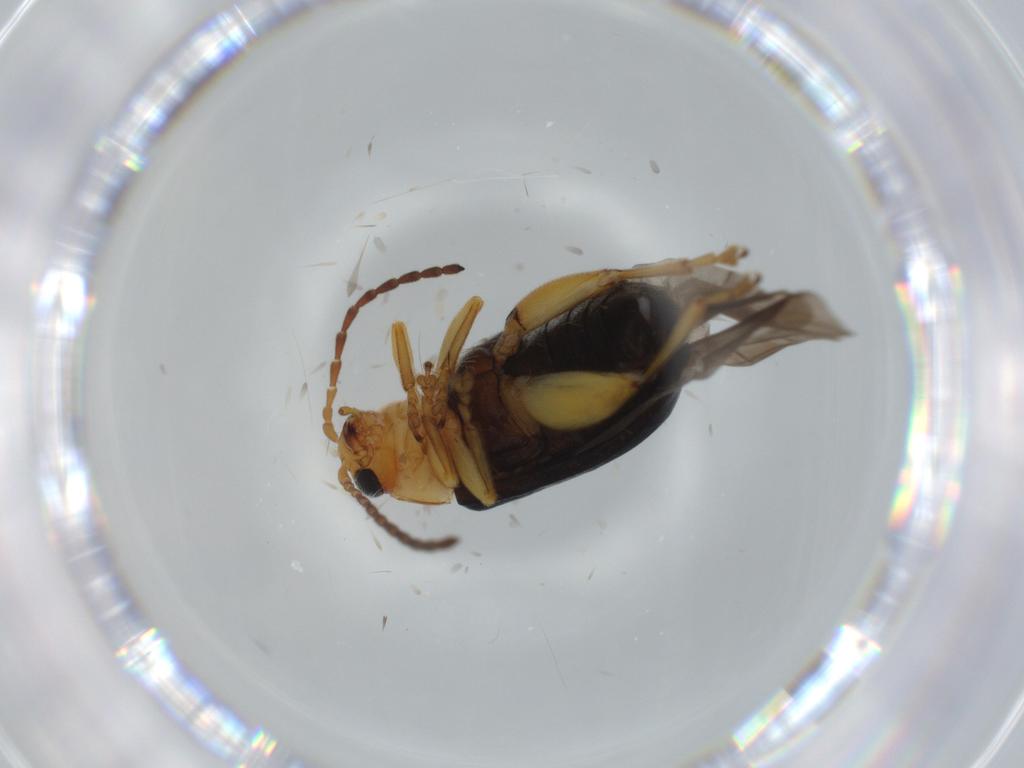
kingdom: Animalia
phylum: Arthropoda
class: Insecta
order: Coleoptera
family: Chrysomelidae
